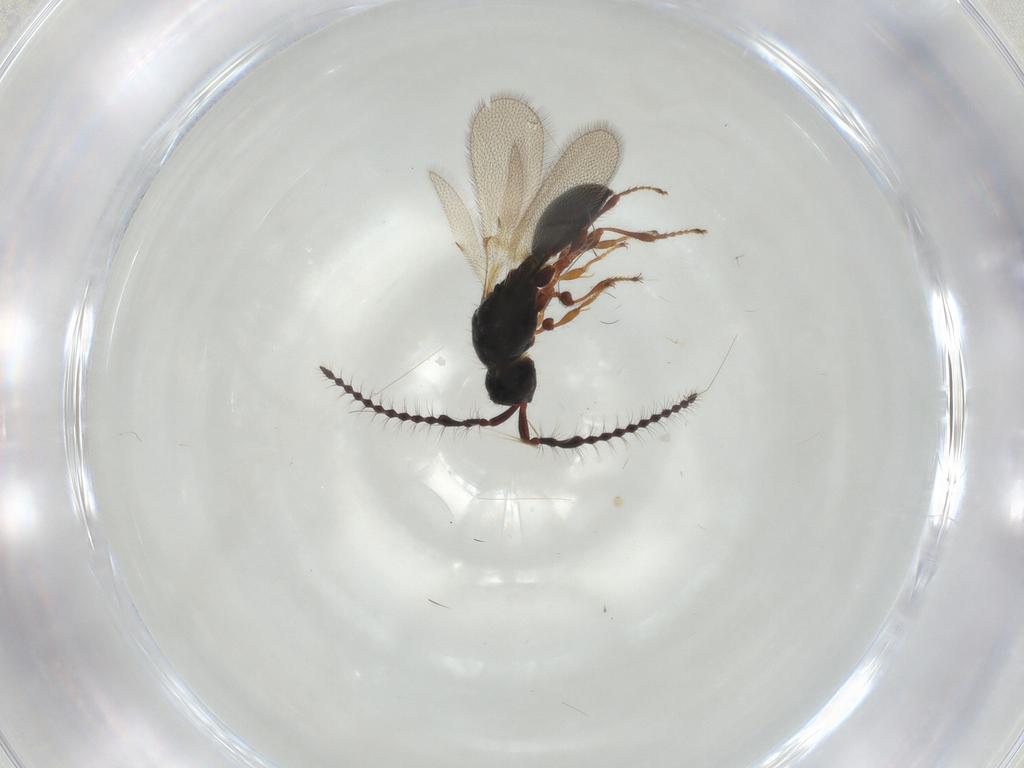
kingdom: Animalia
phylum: Arthropoda
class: Insecta
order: Hymenoptera
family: Diapriidae
